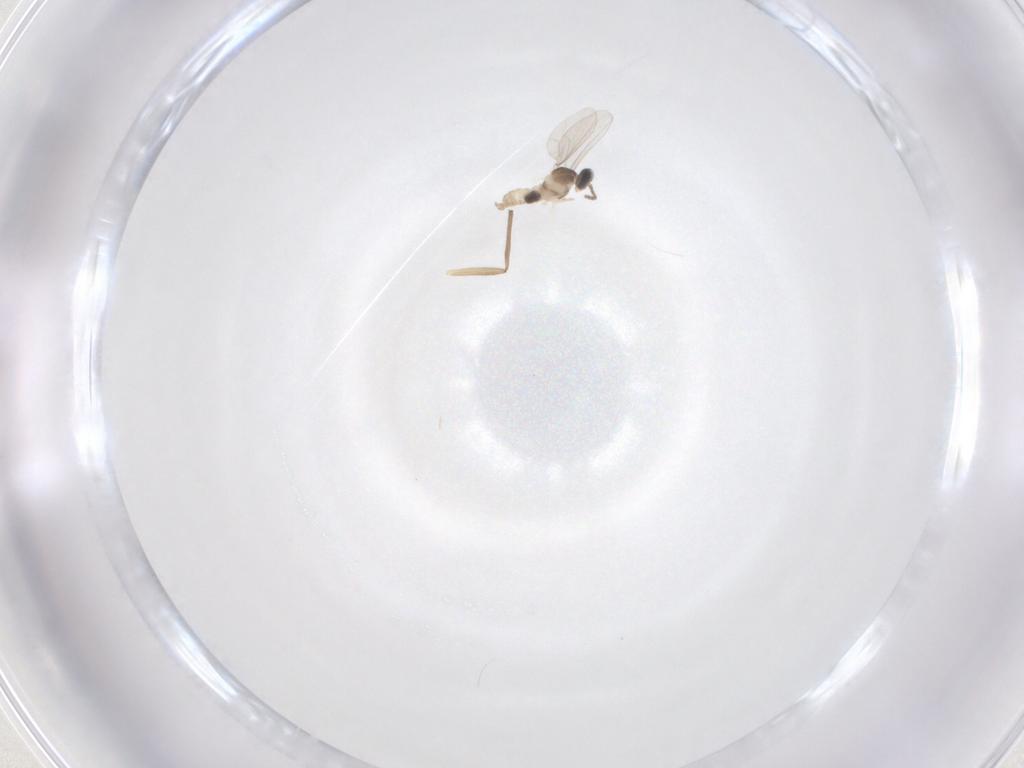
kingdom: Animalia
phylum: Arthropoda
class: Insecta
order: Diptera
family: Cecidomyiidae
